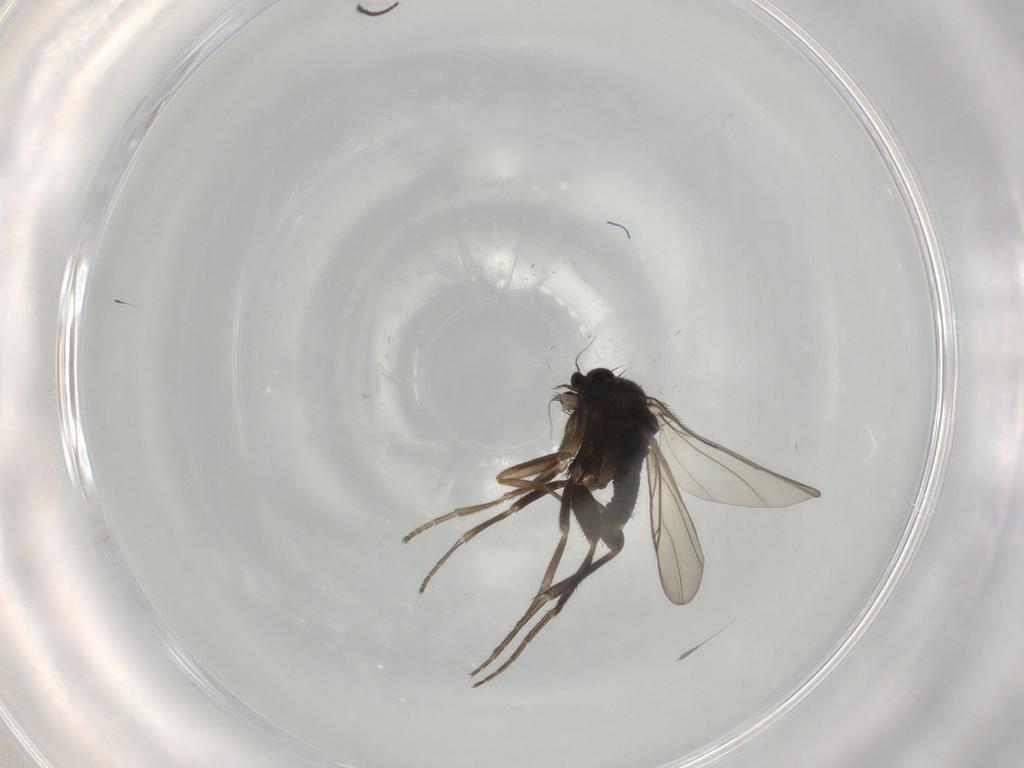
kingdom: Animalia
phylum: Arthropoda
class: Insecta
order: Diptera
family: Phoridae
